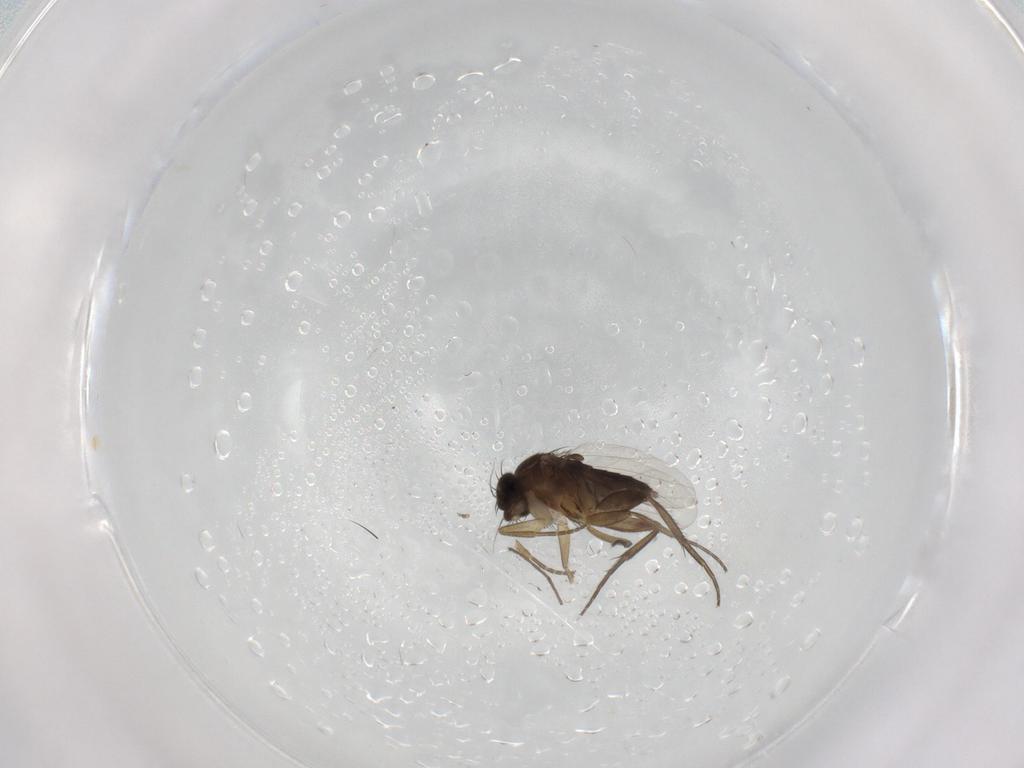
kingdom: Animalia
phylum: Arthropoda
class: Insecta
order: Diptera
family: Phoridae
